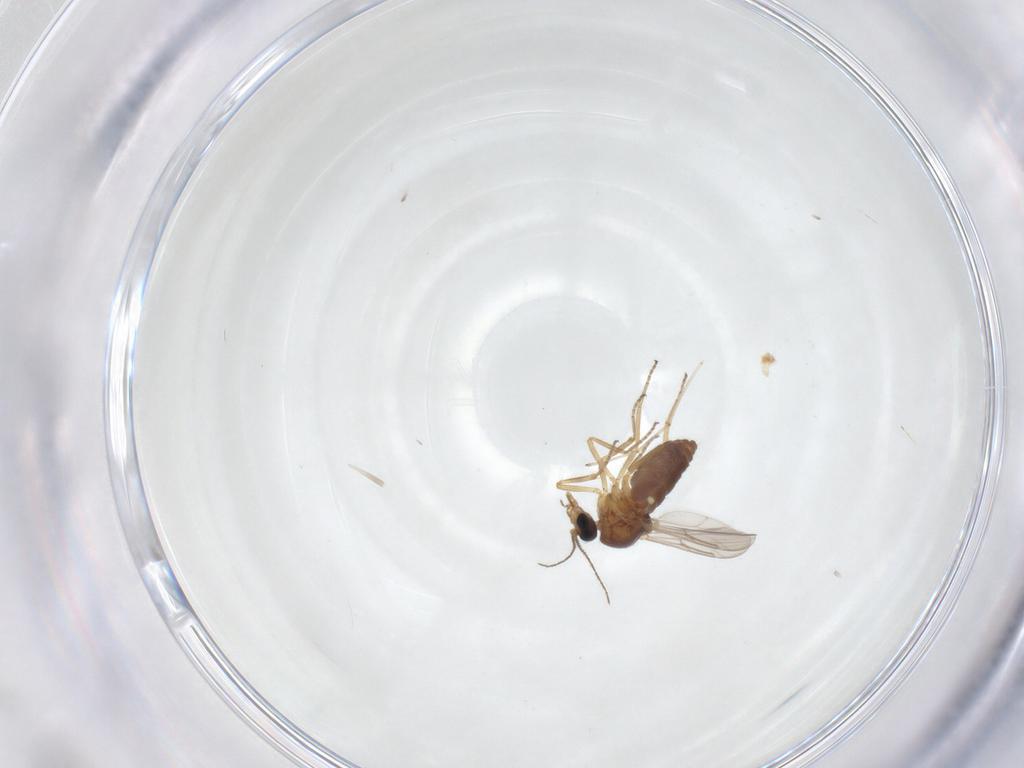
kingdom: Animalia
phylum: Arthropoda
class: Insecta
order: Diptera
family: Ceratopogonidae
